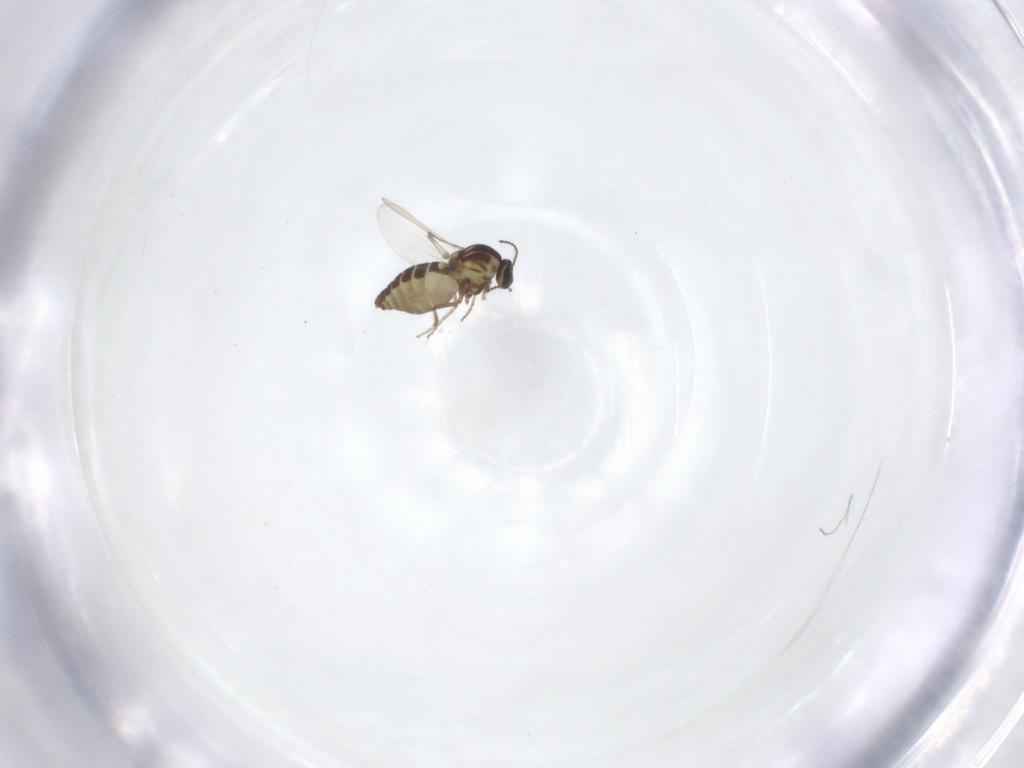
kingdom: Animalia
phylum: Arthropoda
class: Insecta
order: Diptera
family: Ceratopogonidae
